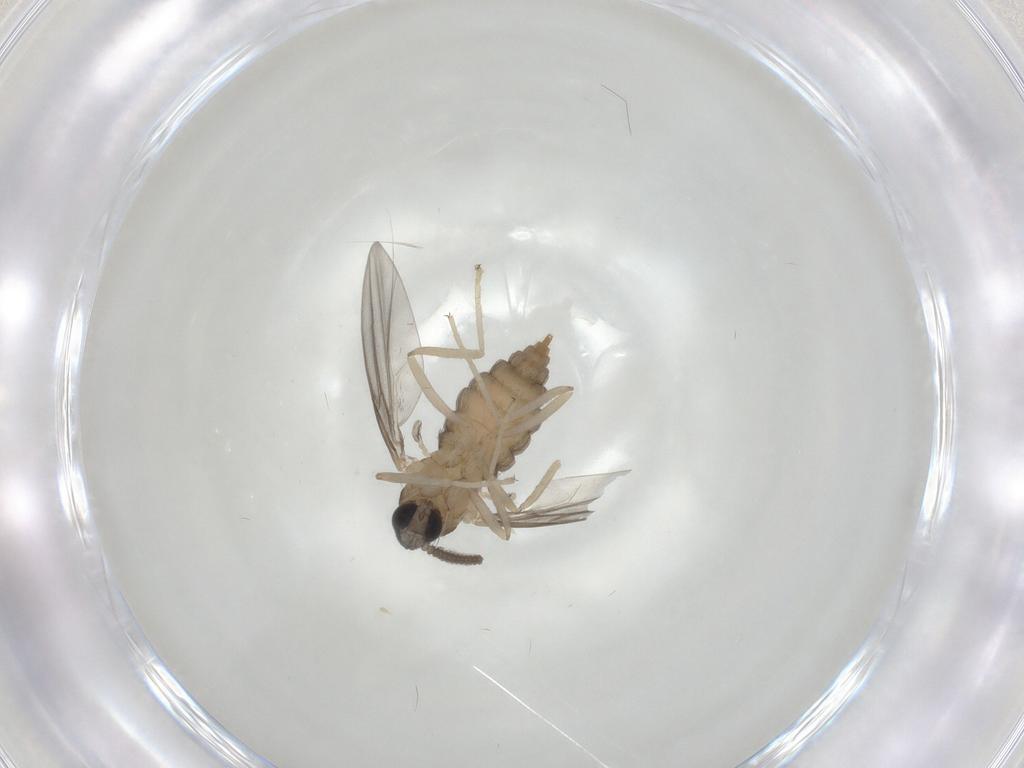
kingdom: Animalia
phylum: Arthropoda
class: Insecta
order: Diptera
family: Cecidomyiidae
